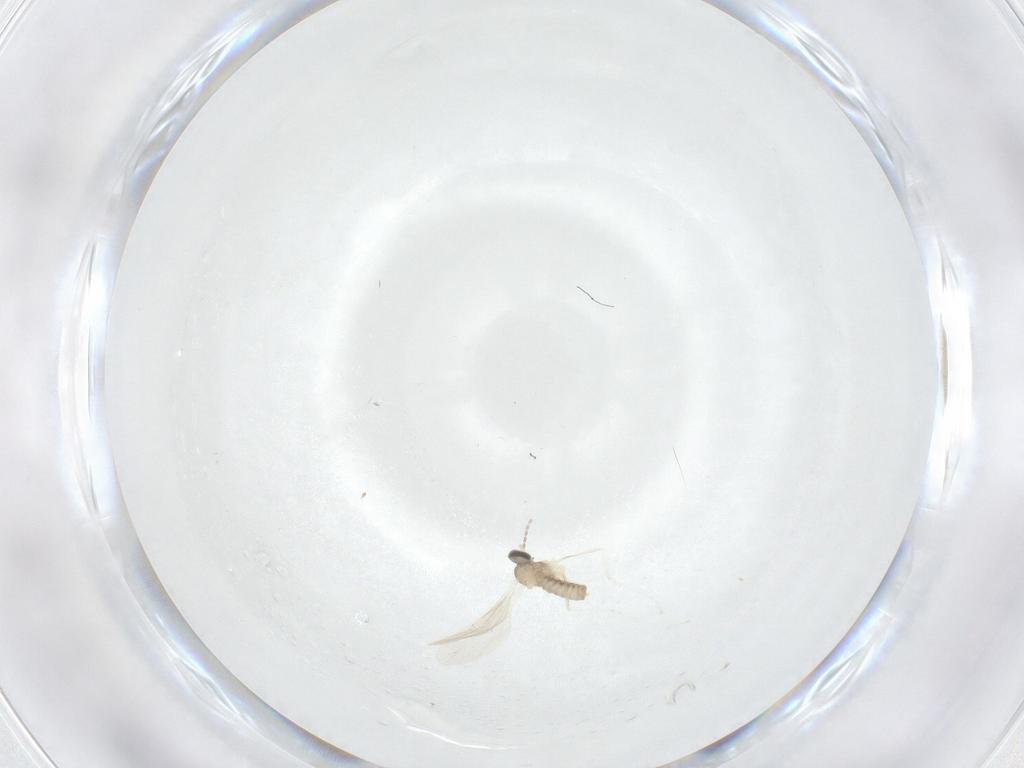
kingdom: Animalia
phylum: Arthropoda
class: Insecta
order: Diptera
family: Cecidomyiidae
